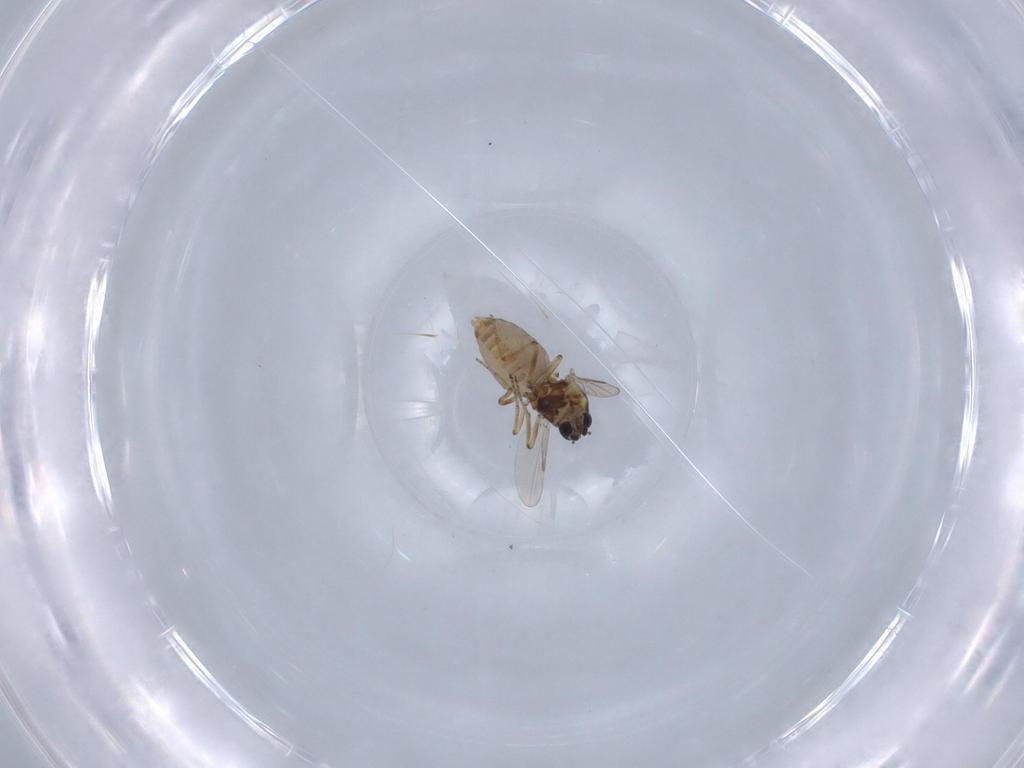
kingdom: Animalia
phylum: Arthropoda
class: Insecta
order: Diptera
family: Ceratopogonidae
